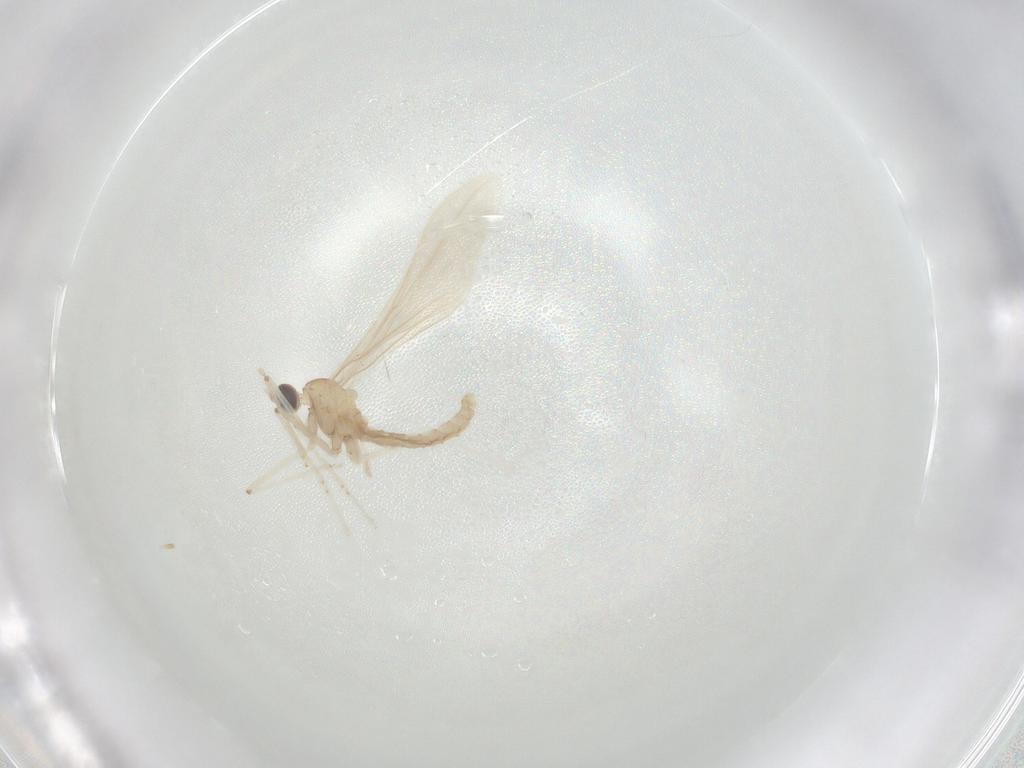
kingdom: Animalia
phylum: Arthropoda
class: Insecta
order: Diptera
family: Cecidomyiidae
